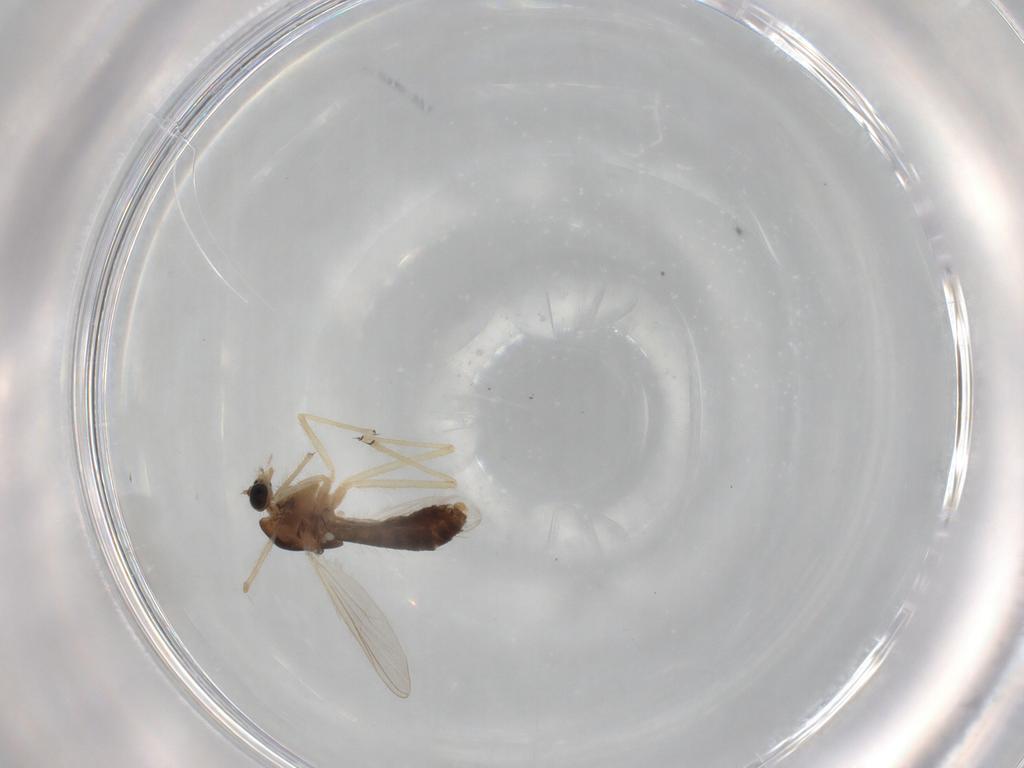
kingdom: Animalia
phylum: Arthropoda
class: Insecta
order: Diptera
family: Chironomidae
